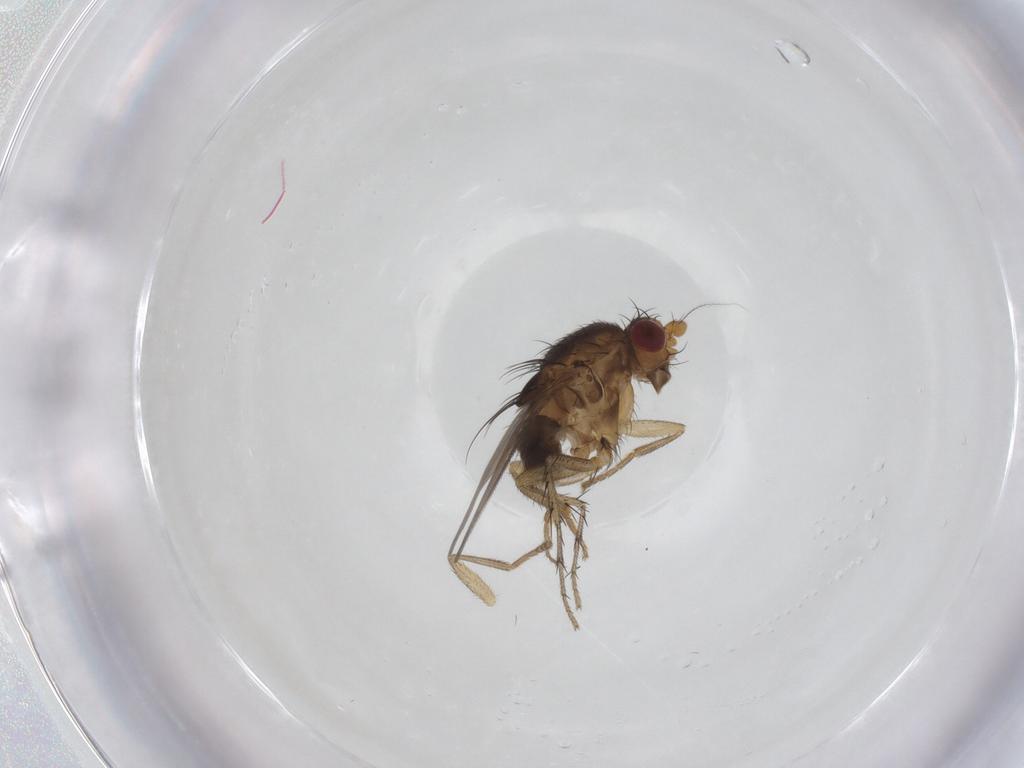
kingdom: Animalia
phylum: Arthropoda
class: Insecta
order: Diptera
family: Sphaeroceridae
